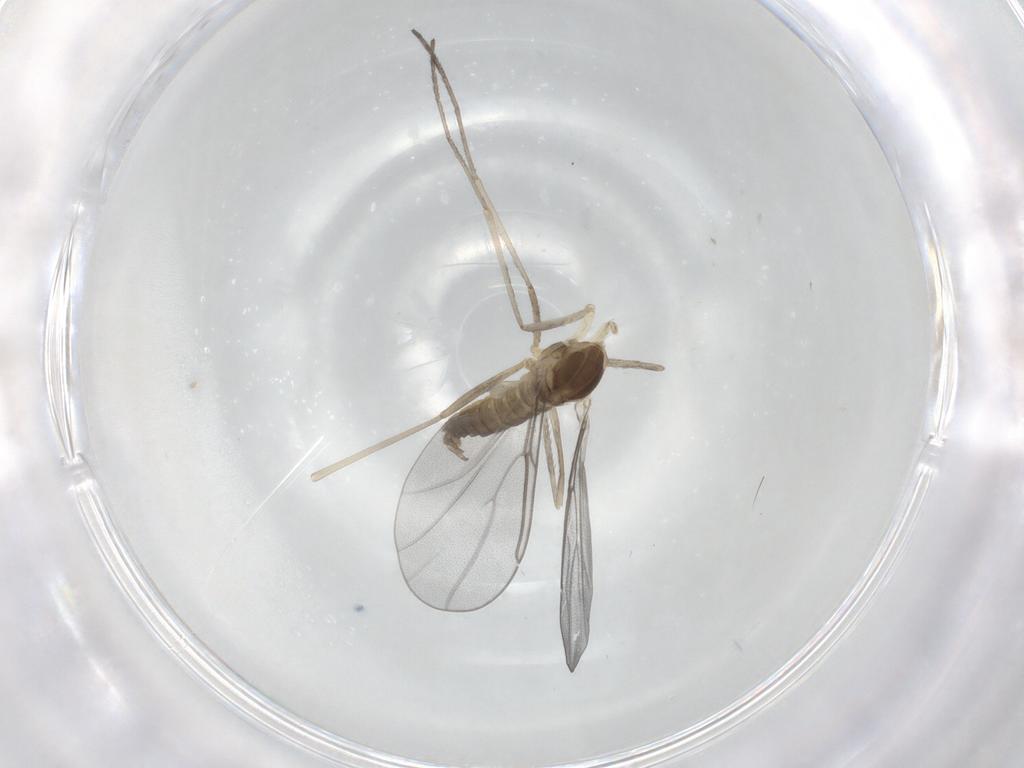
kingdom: Animalia
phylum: Arthropoda
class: Insecta
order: Diptera
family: Cecidomyiidae
